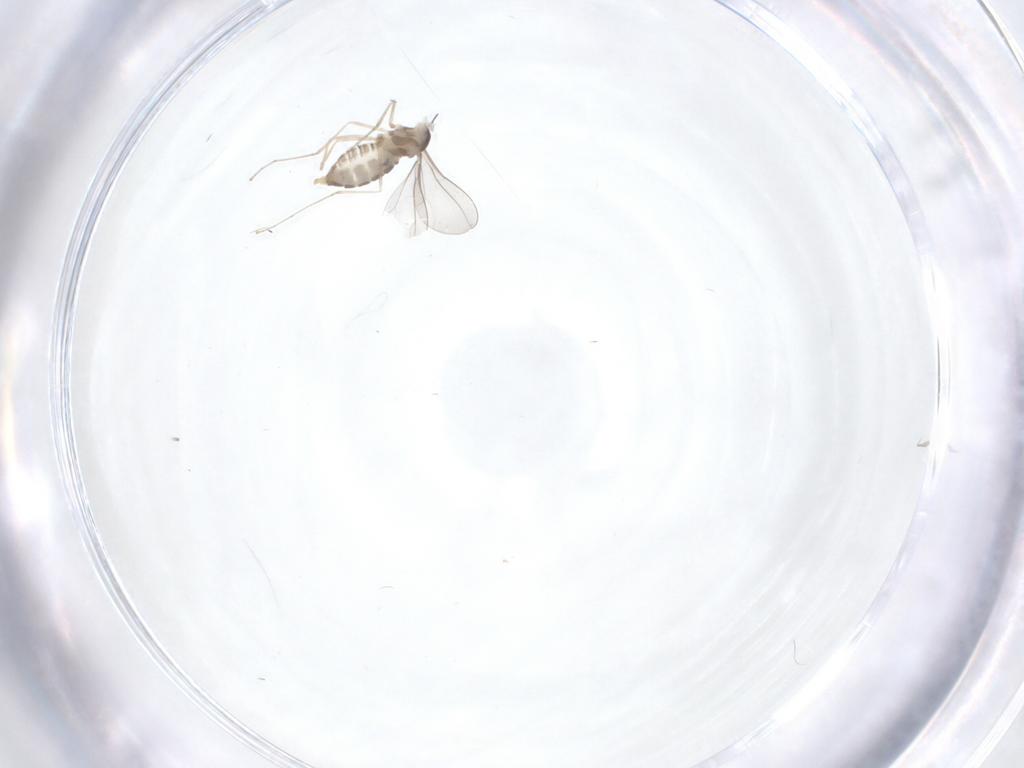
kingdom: Animalia
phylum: Arthropoda
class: Insecta
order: Diptera
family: Cecidomyiidae
